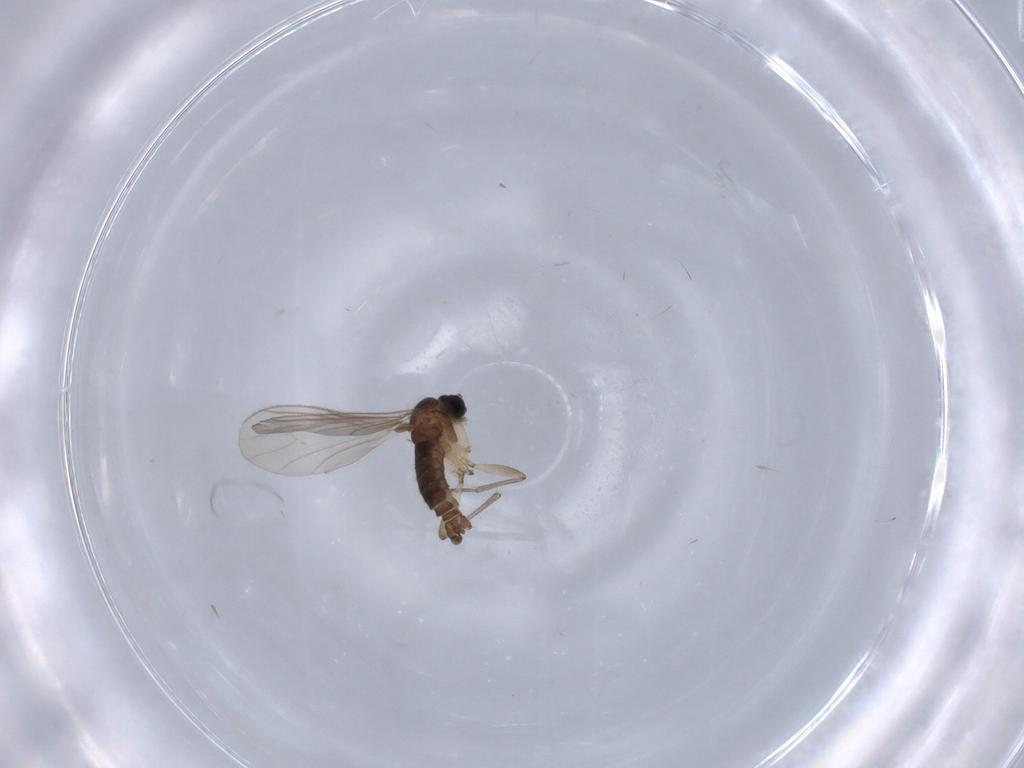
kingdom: Animalia
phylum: Arthropoda
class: Insecta
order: Diptera
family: Sciaridae
